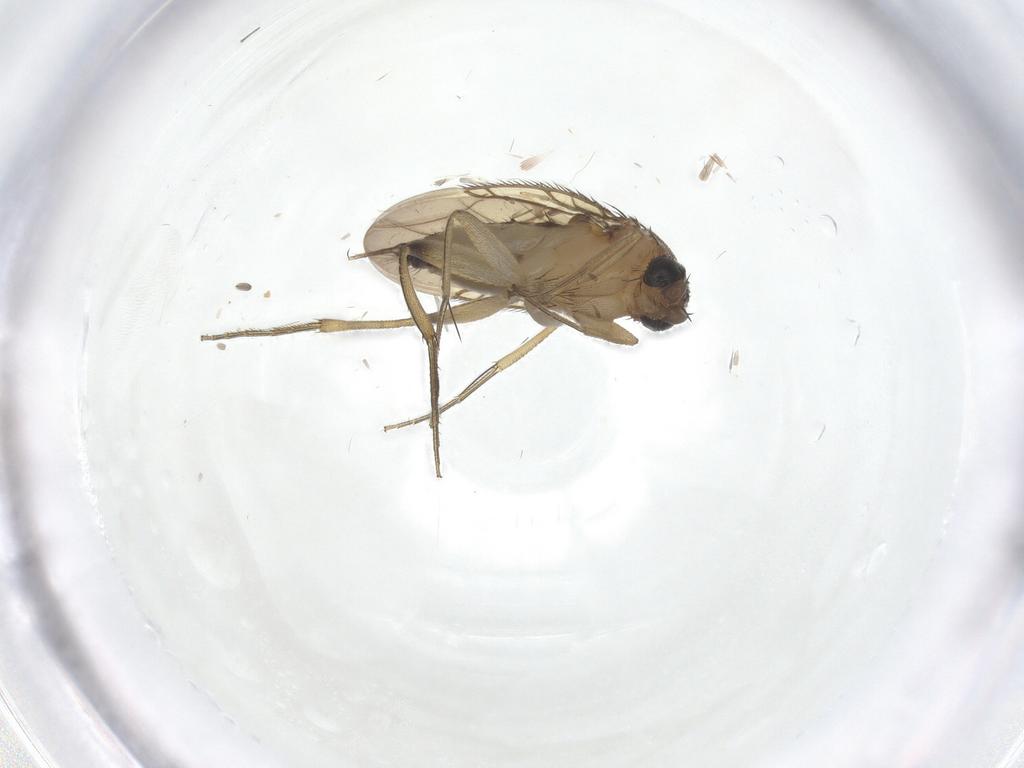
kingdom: Animalia
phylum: Arthropoda
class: Insecta
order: Diptera
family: Phoridae
